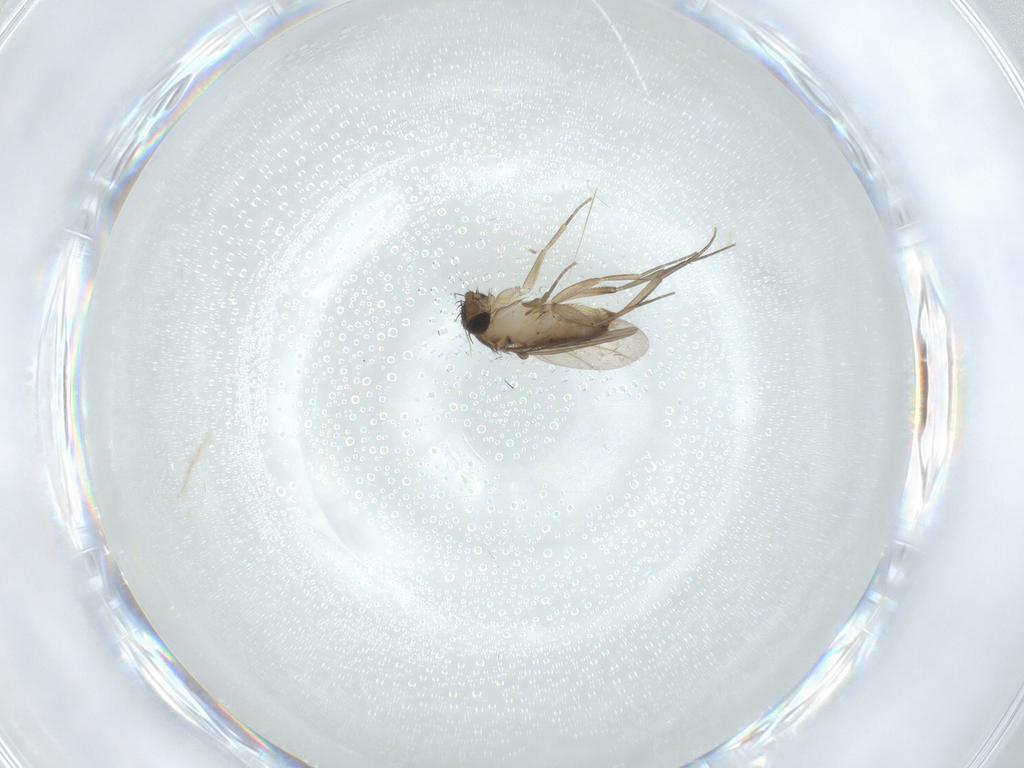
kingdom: Animalia
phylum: Arthropoda
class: Insecta
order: Diptera
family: Phoridae
